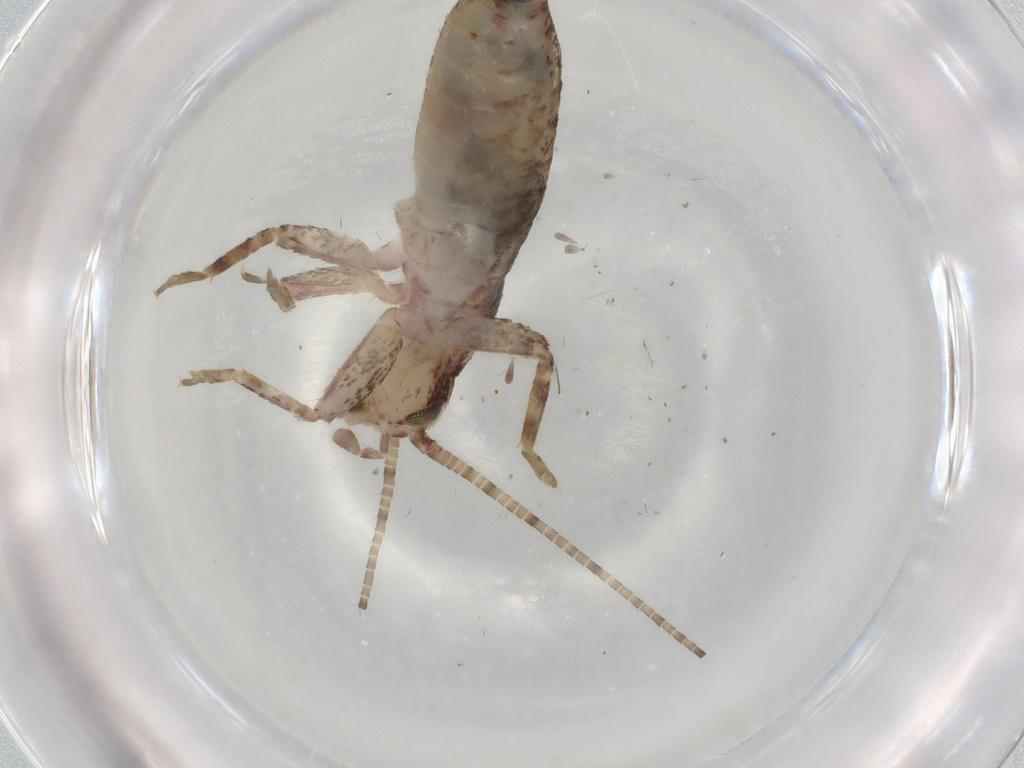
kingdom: Animalia
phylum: Arthropoda
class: Insecta
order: Orthoptera
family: Mogoplistidae
